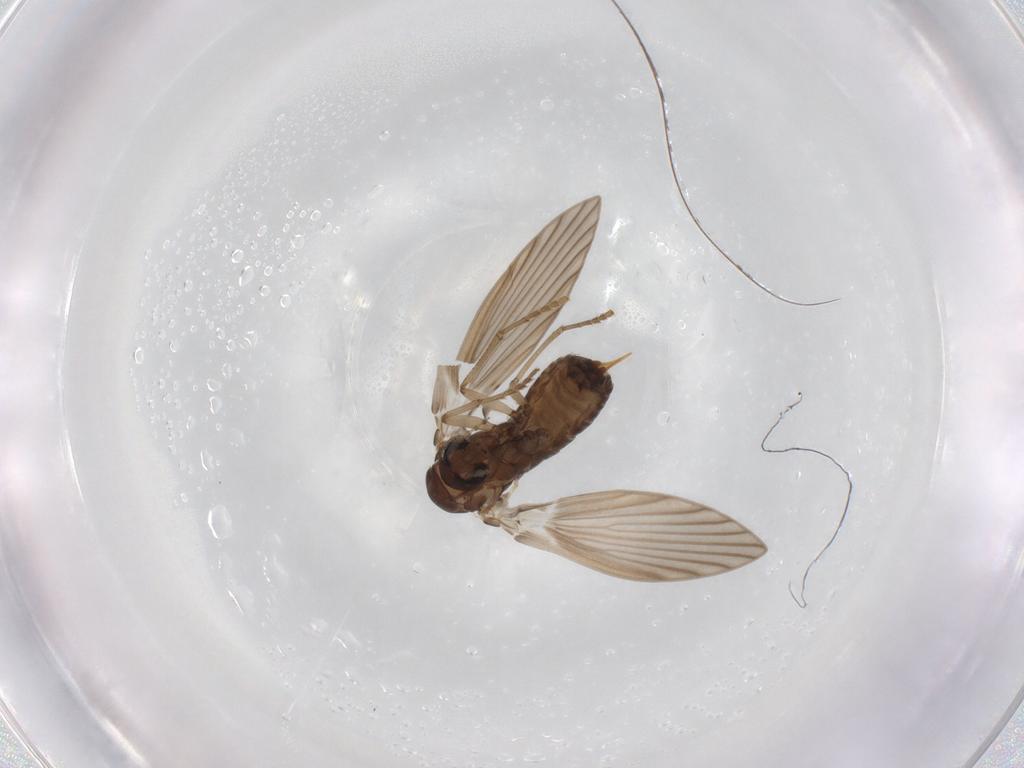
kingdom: Animalia
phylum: Arthropoda
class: Insecta
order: Diptera
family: Psychodidae
